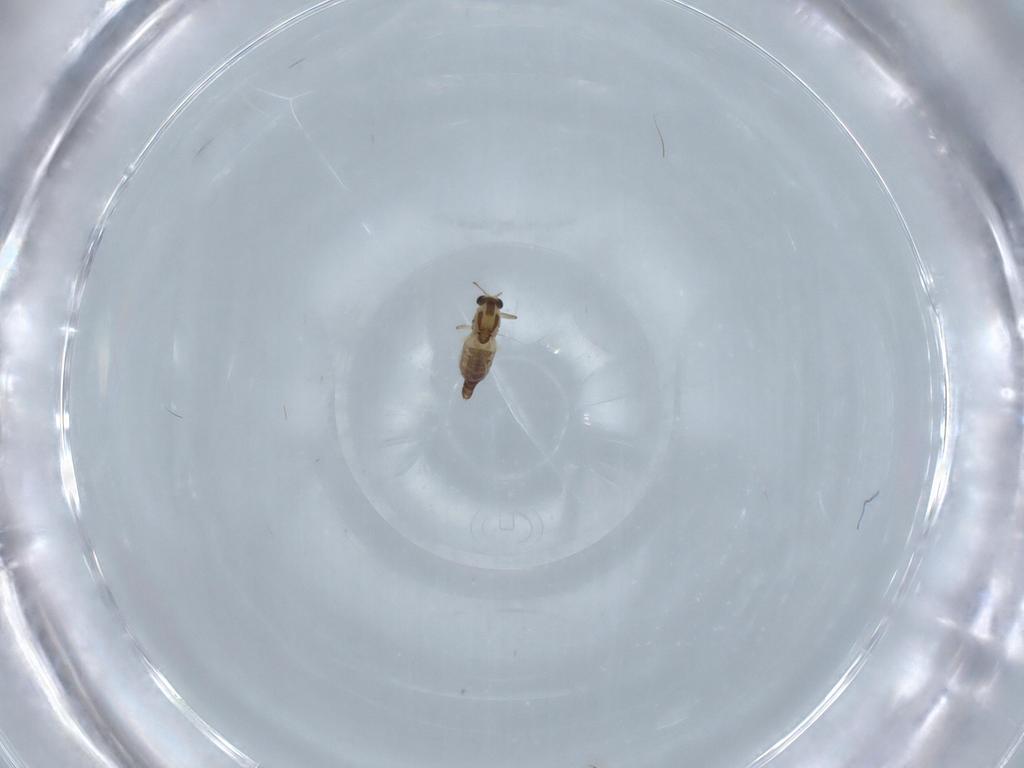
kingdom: Animalia
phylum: Arthropoda
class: Insecta
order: Diptera
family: Chironomidae
